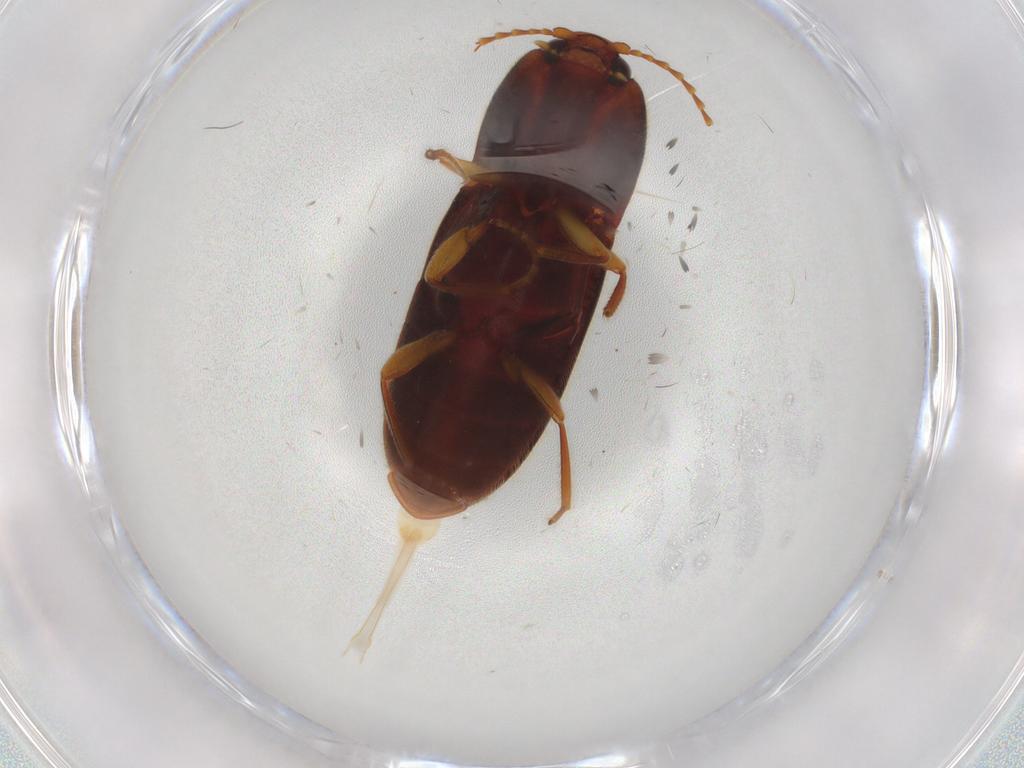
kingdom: Animalia
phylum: Arthropoda
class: Insecta
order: Coleoptera
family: Elateridae
